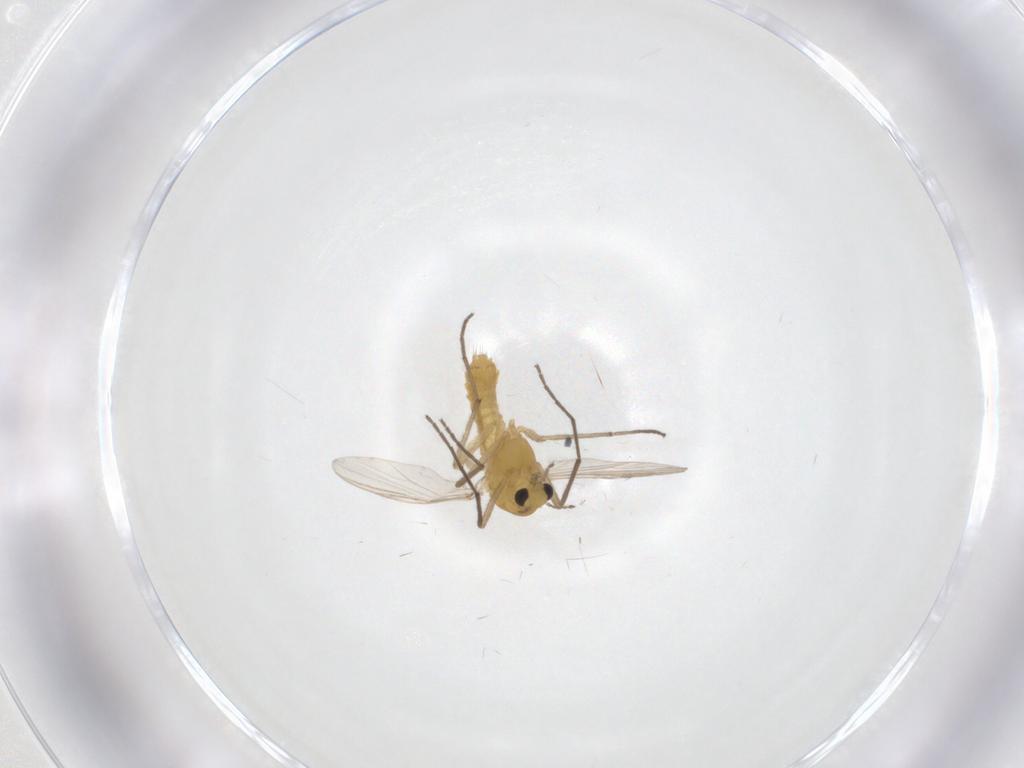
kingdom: Animalia
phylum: Arthropoda
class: Insecta
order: Diptera
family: Chironomidae
